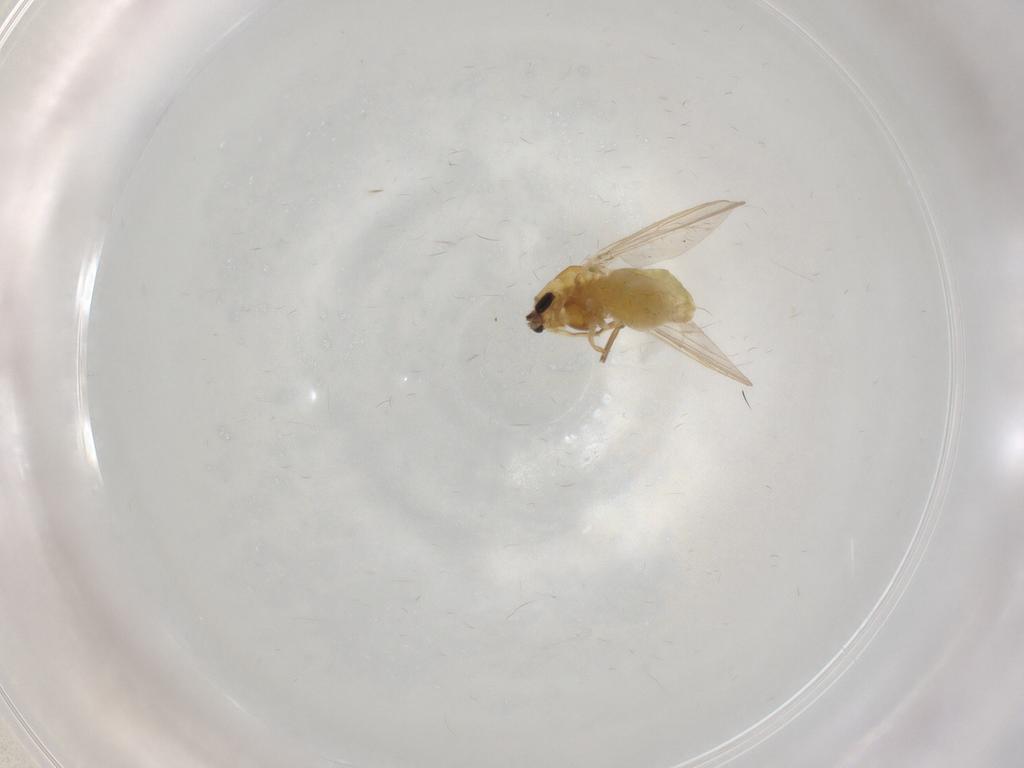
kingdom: Animalia
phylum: Arthropoda
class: Insecta
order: Diptera
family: Chironomidae
